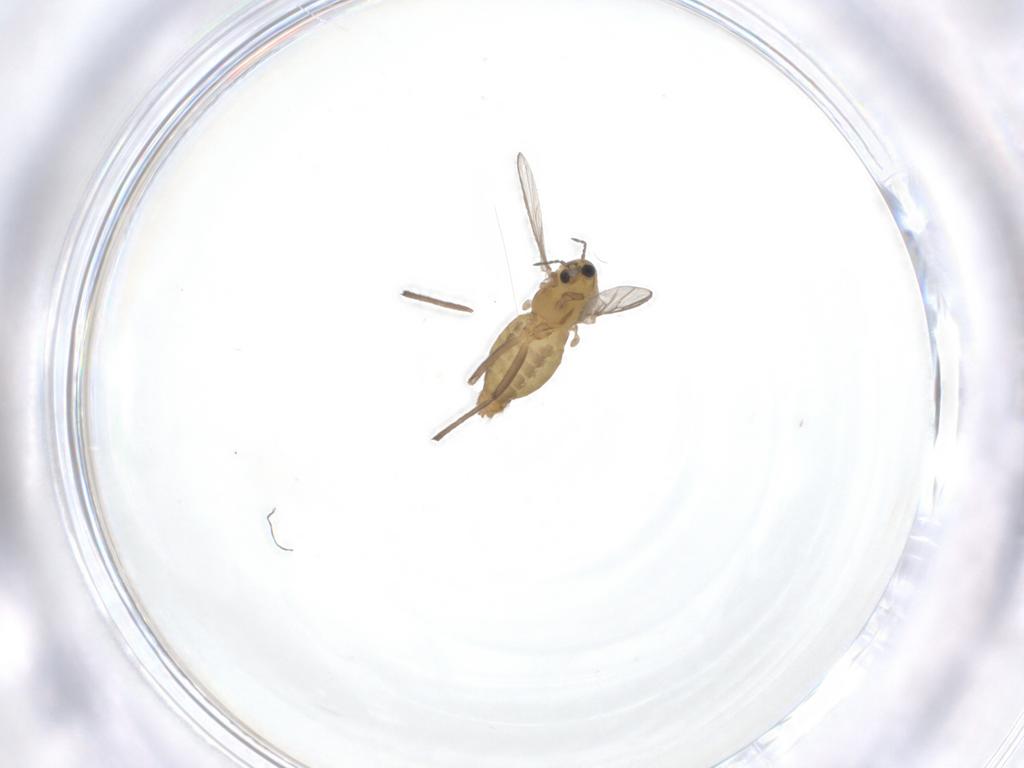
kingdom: Animalia
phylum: Arthropoda
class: Insecta
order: Diptera
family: Chironomidae
